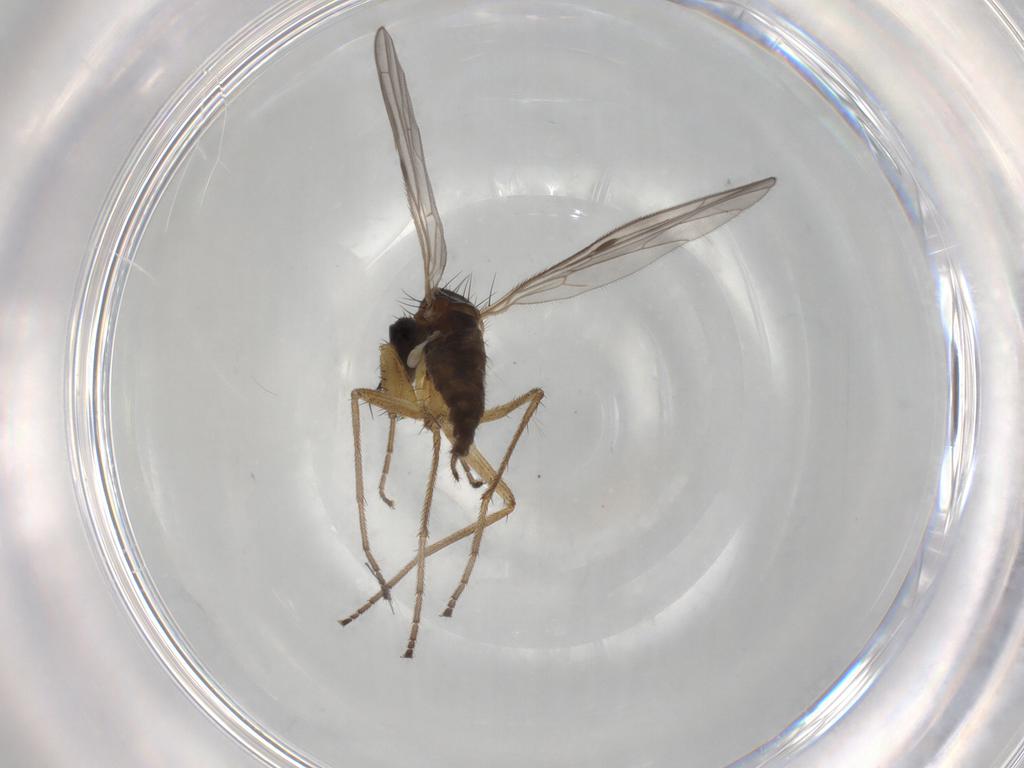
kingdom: Animalia
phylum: Arthropoda
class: Insecta
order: Diptera
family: Chironomidae
